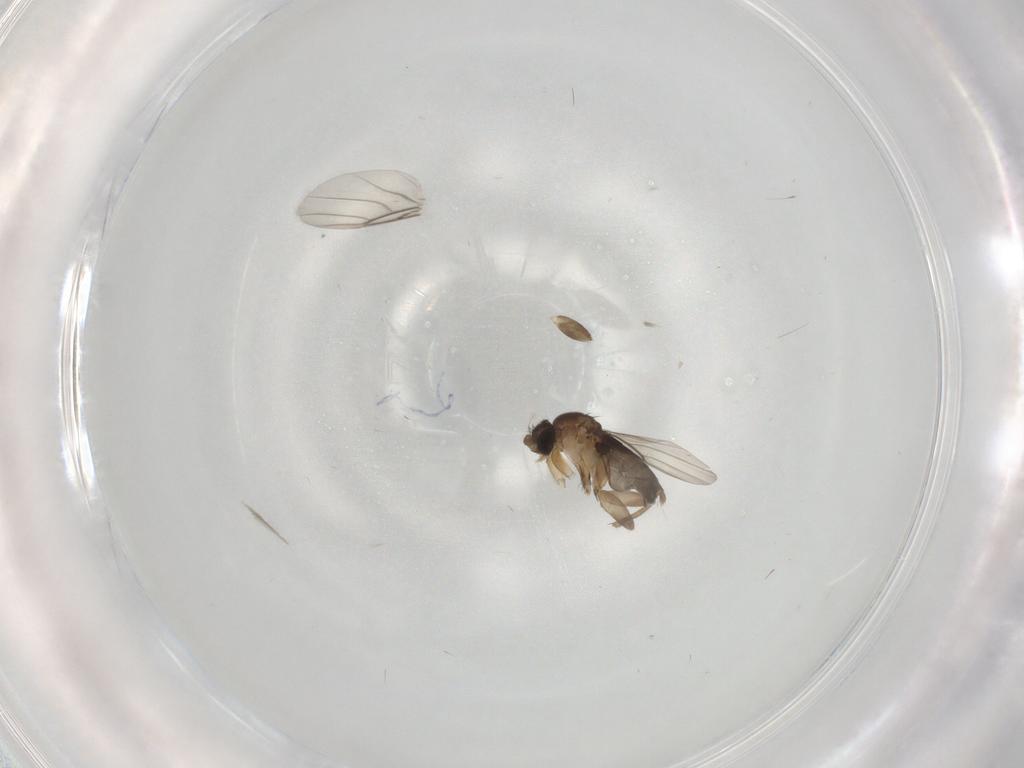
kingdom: Animalia
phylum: Arthropoda
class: Insecta
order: Diptera
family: Phoridae
